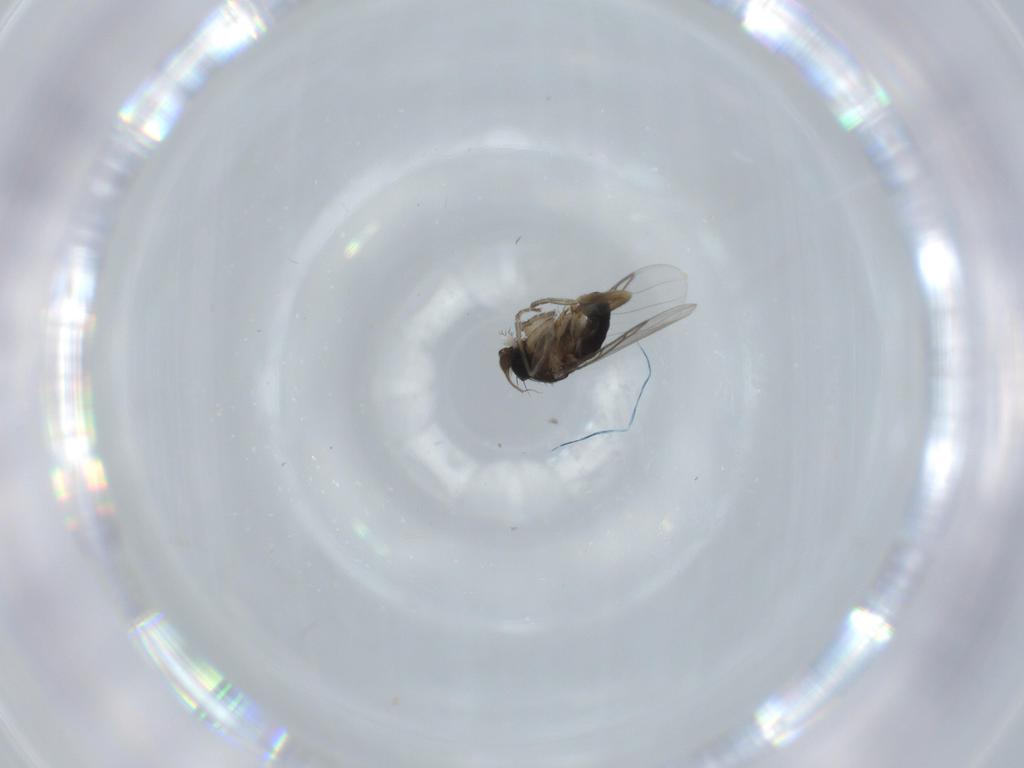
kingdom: Animalia
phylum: Arthropoda
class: Insecta
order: Diptera
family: Phoridae
